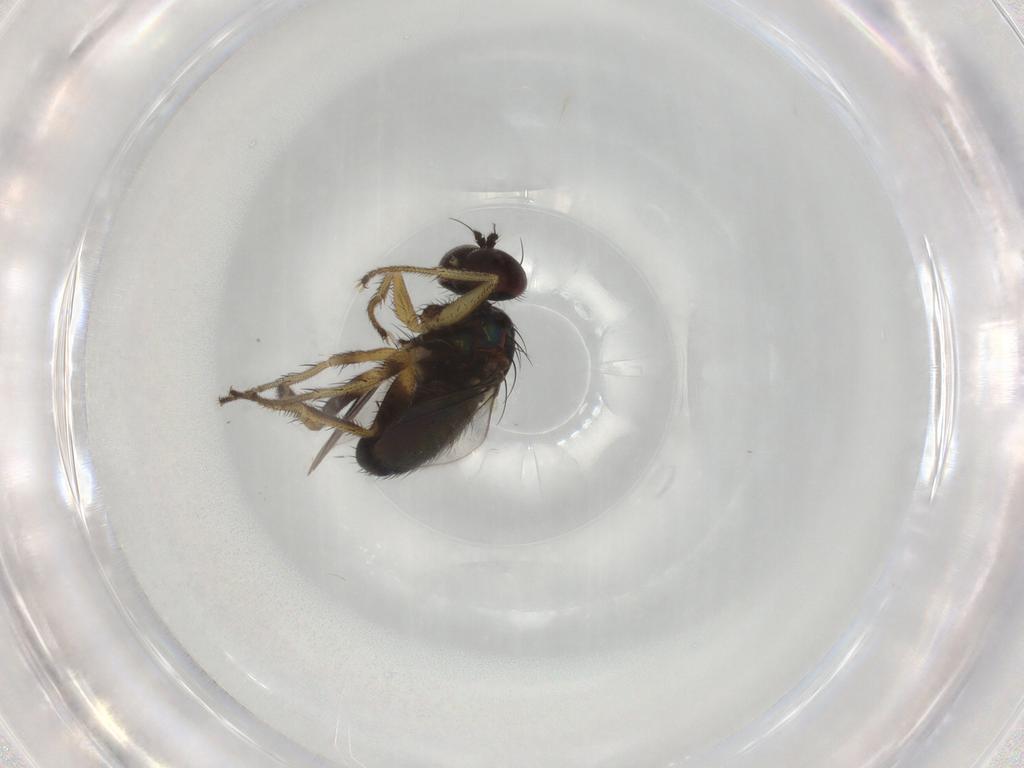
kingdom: Animalia
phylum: Arthropoda
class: Insecta
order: Diptera
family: Dolichopodidae
